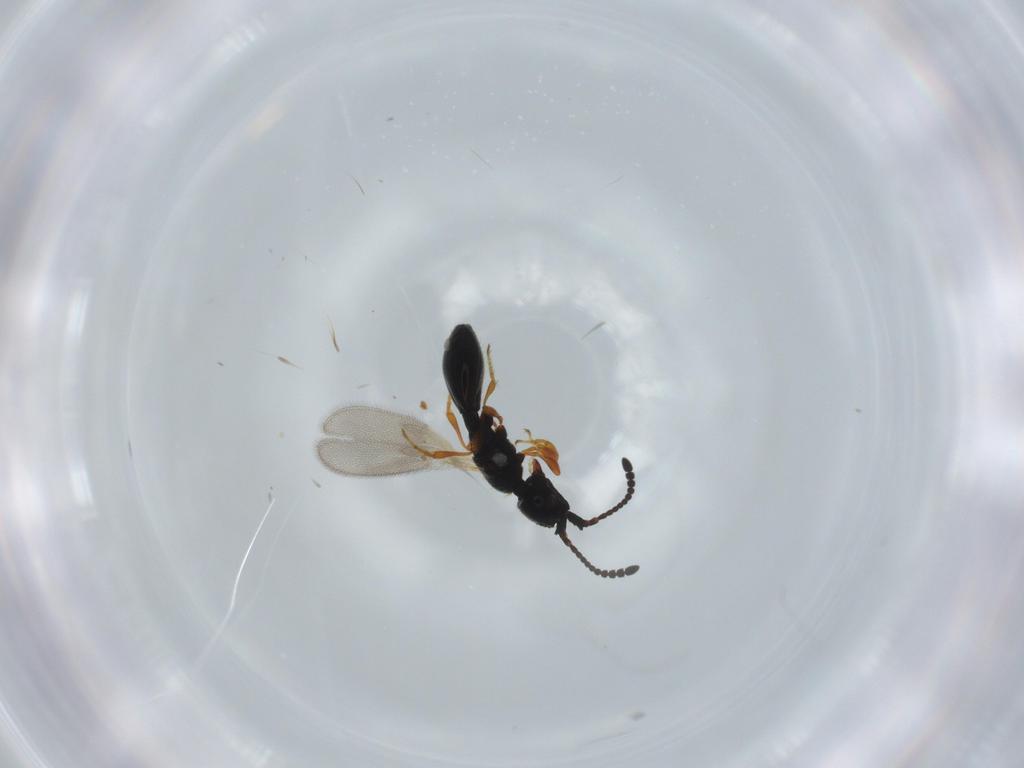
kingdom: Animalia
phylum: Arthropoda
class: Insecta
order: Hymenoptera
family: Diapriidae
